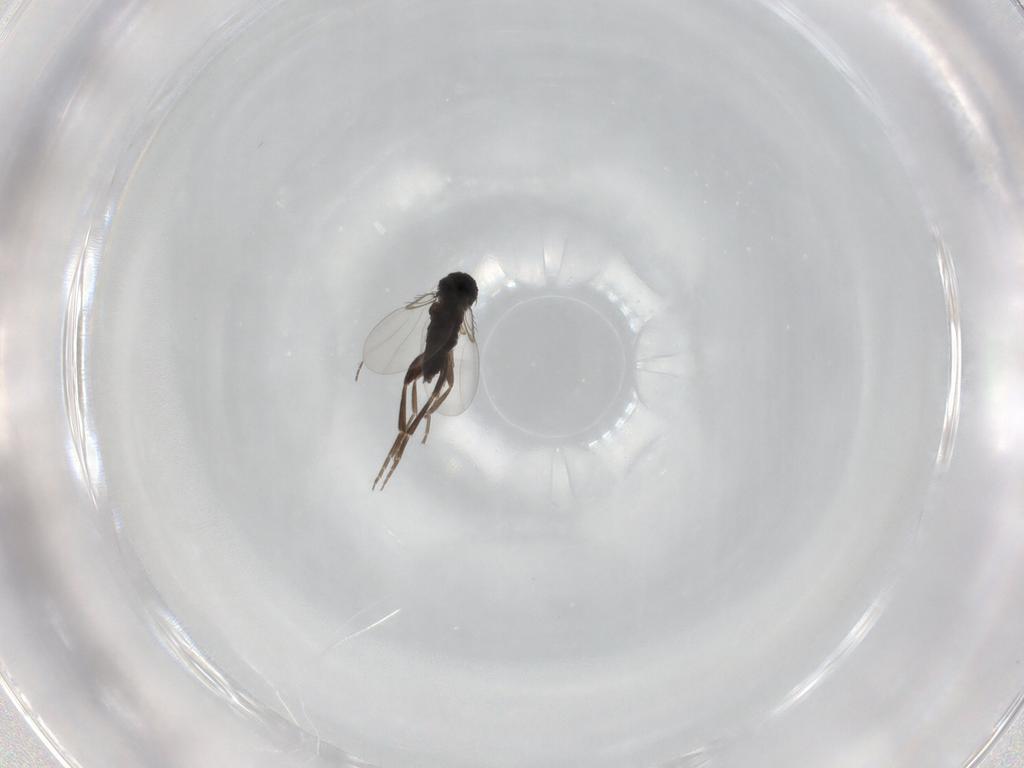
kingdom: Animalia
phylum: Arthropoda
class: Insecta
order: Diptera
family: Phoridae
